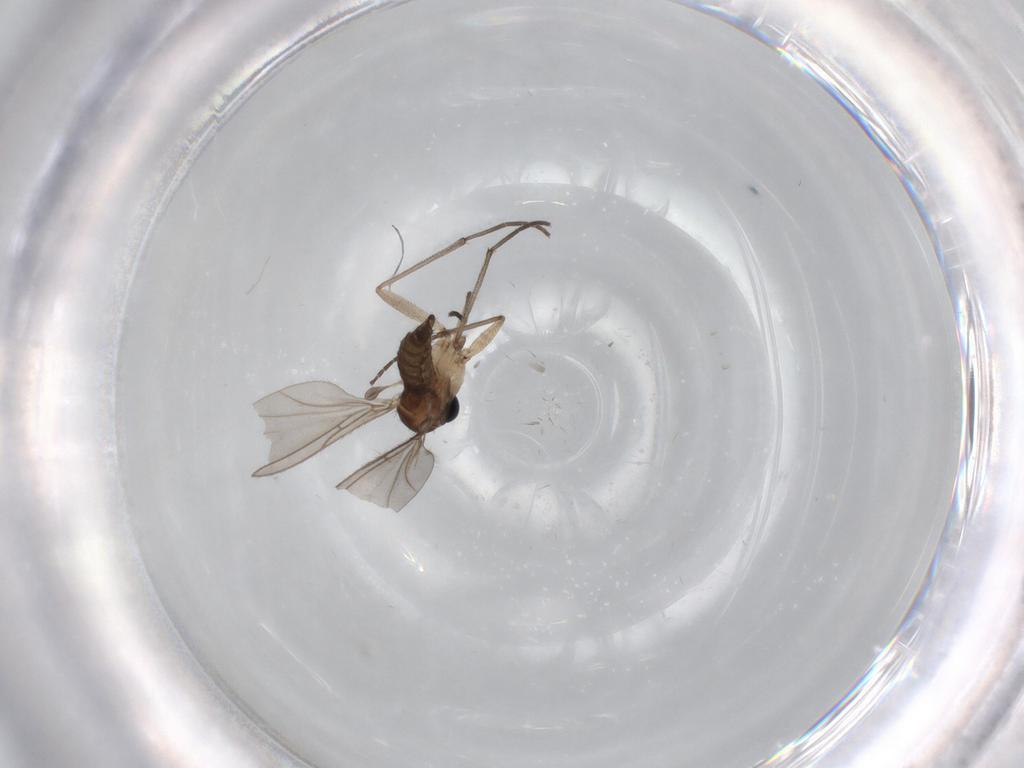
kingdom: Animalia
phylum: Arthropoda
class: Insecta
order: Diptera
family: Sciaridae
